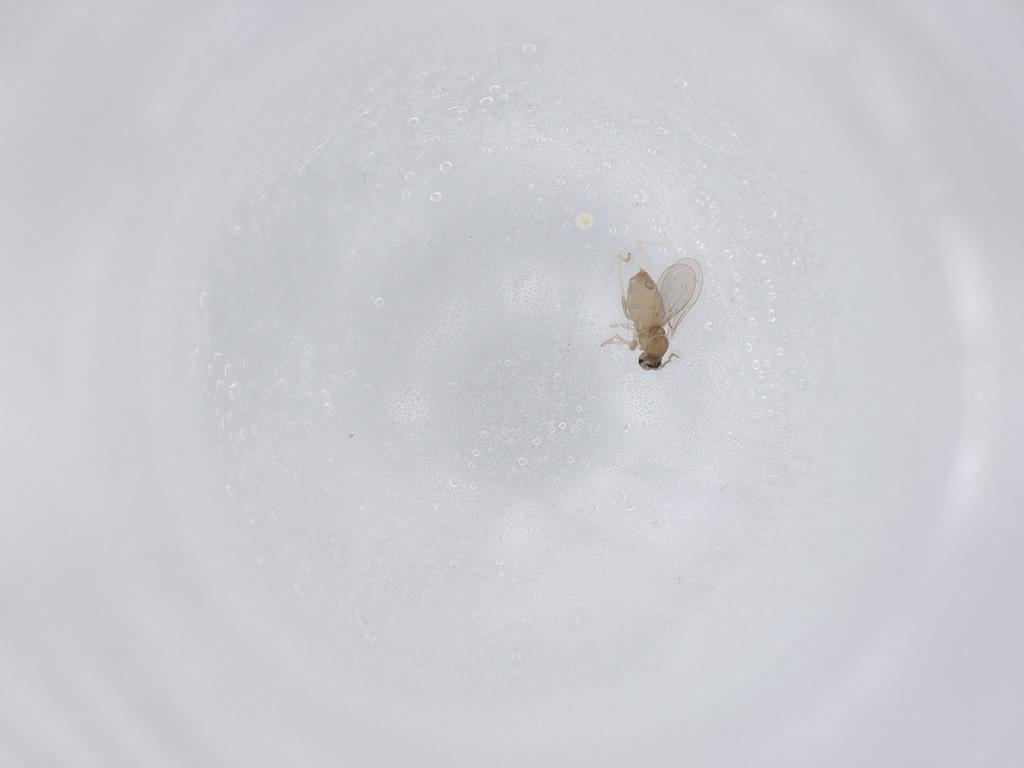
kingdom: Animalia
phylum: Arthropoda
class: Insecta
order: Diptera
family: Cecidomyiidae
